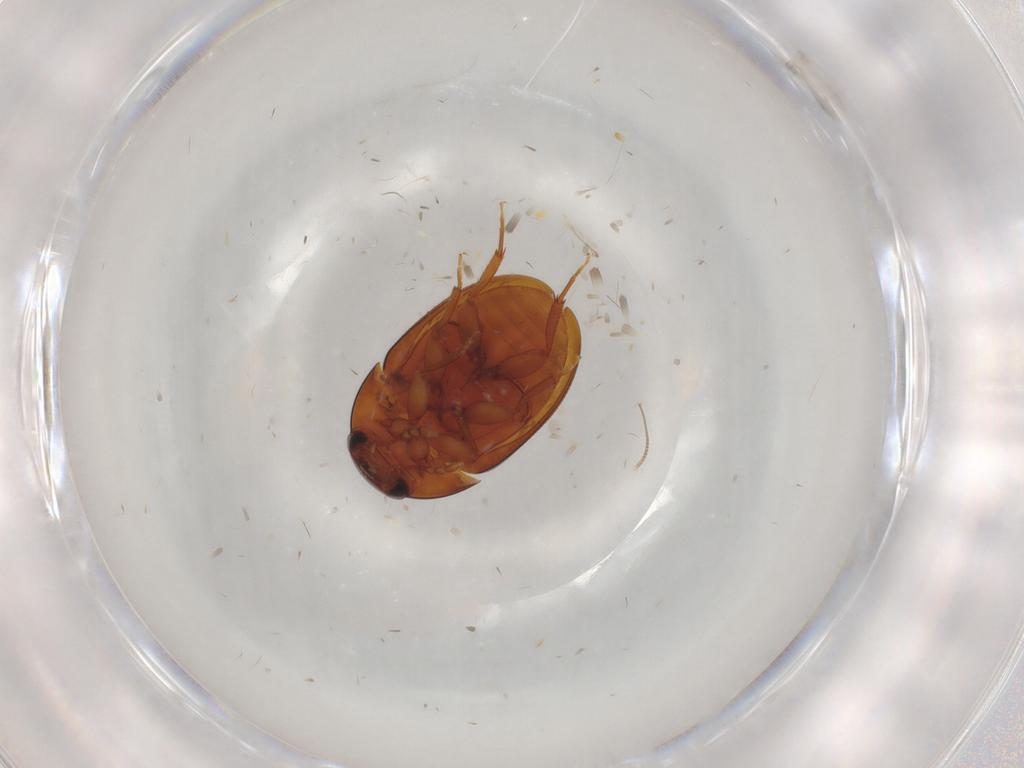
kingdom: Animalia
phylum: Arthropoda
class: Insecta
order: Coleoptera
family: Phalacridae
